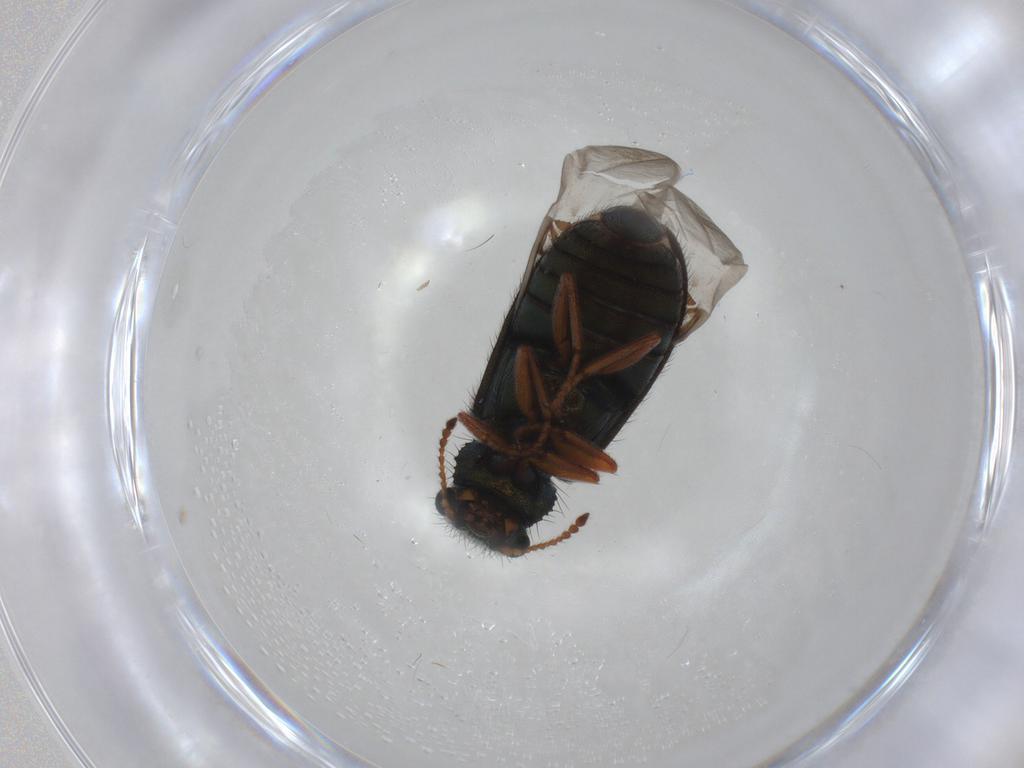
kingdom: Animalia
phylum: Arthropoda
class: Insecta
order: Coleoptera
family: Melyridae
